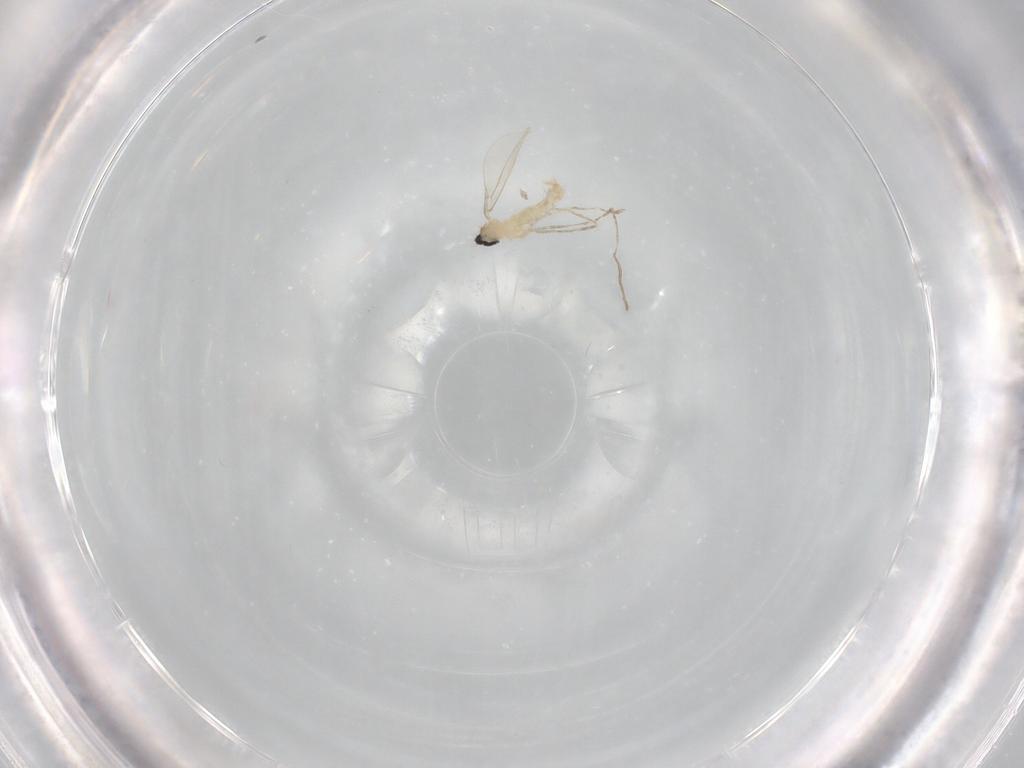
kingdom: Animalia
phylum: Arthropoda
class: Insecta
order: Diptera
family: Cecidomyiidae
